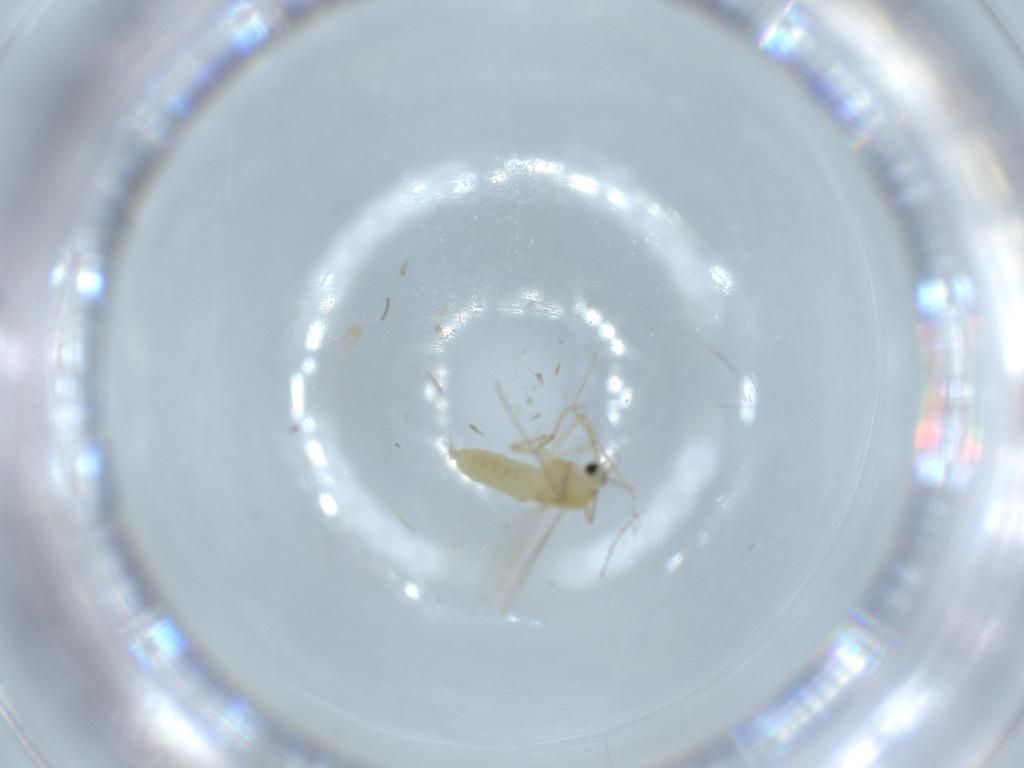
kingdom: Animalia
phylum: Arthropoda
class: Insecta
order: Diptera
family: Chironomidae
